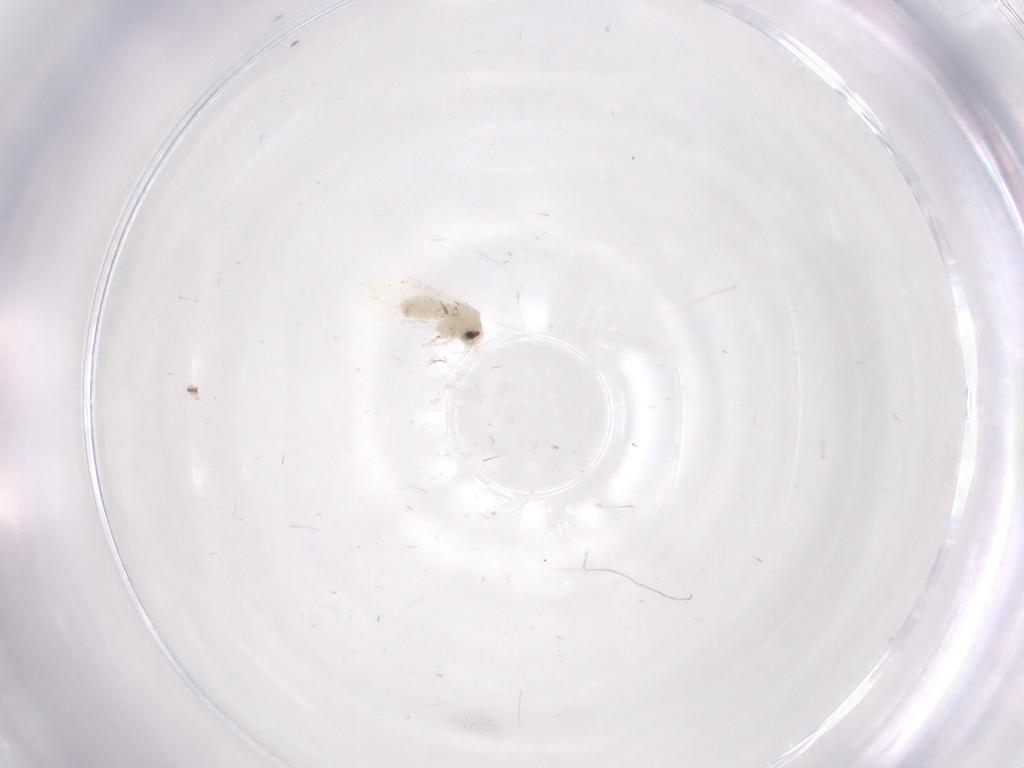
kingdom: Animalia
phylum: Arthropoda
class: Insecta
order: Hemiptera
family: Aleyrodidae
